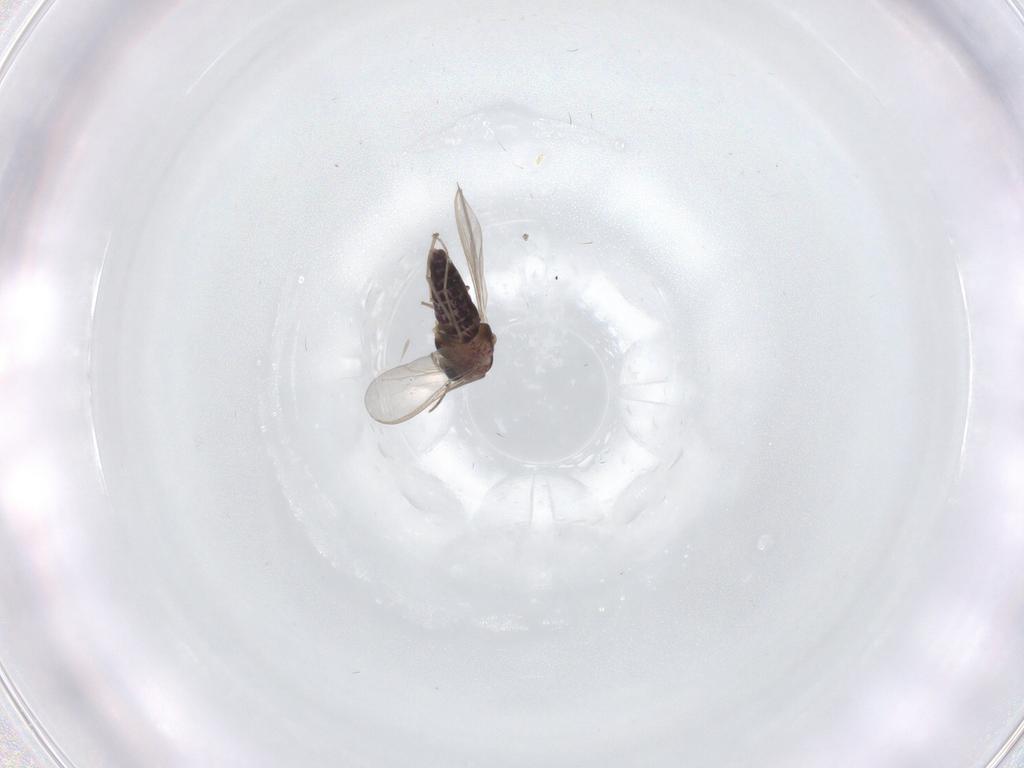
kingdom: Animalia
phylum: Arthropoda
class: Insecta
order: Diptera
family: Chironomidae
